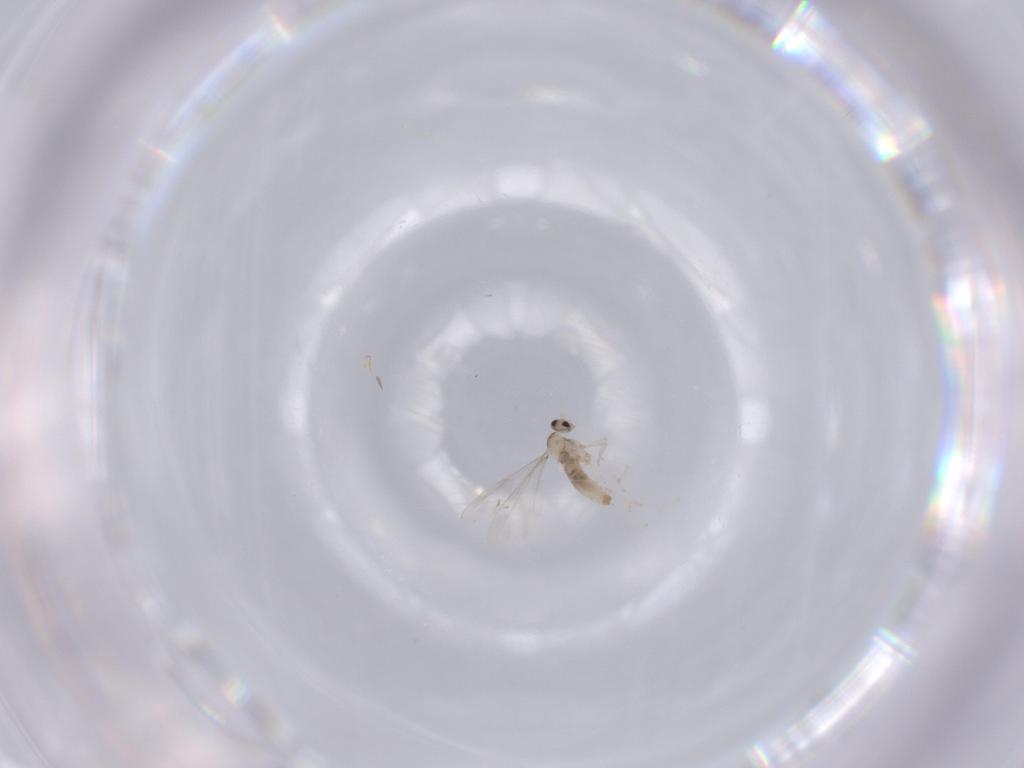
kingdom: Animalia
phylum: Arthropoda
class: Insecta
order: Diptera
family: Cecidomyiidae
